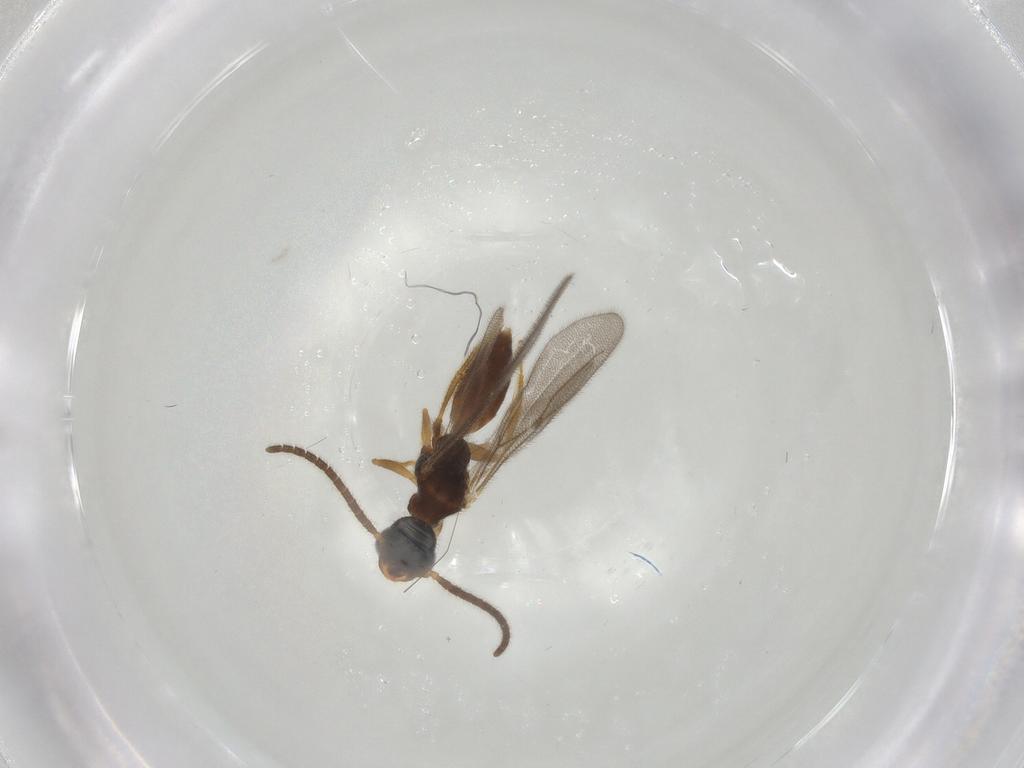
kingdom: Animalia
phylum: Arthropoda
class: Insecta
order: Hymenoptera
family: Bethylidae
